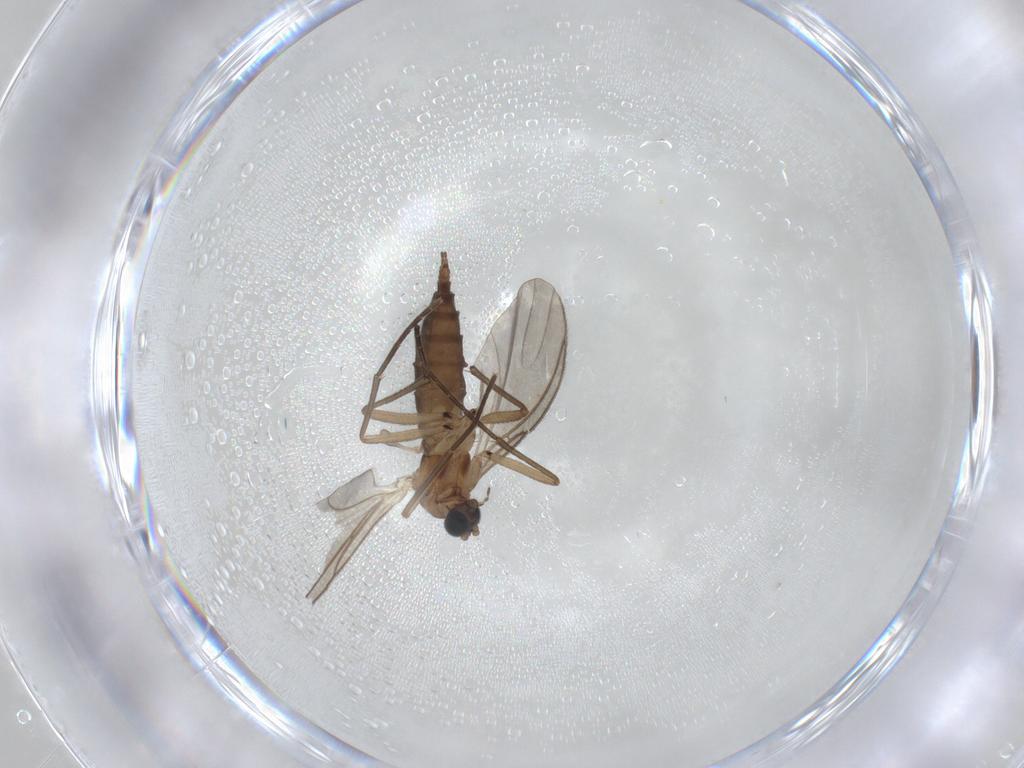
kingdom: Animalia
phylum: Arthropoda
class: Insecta
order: Diptera
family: Sciaridae
